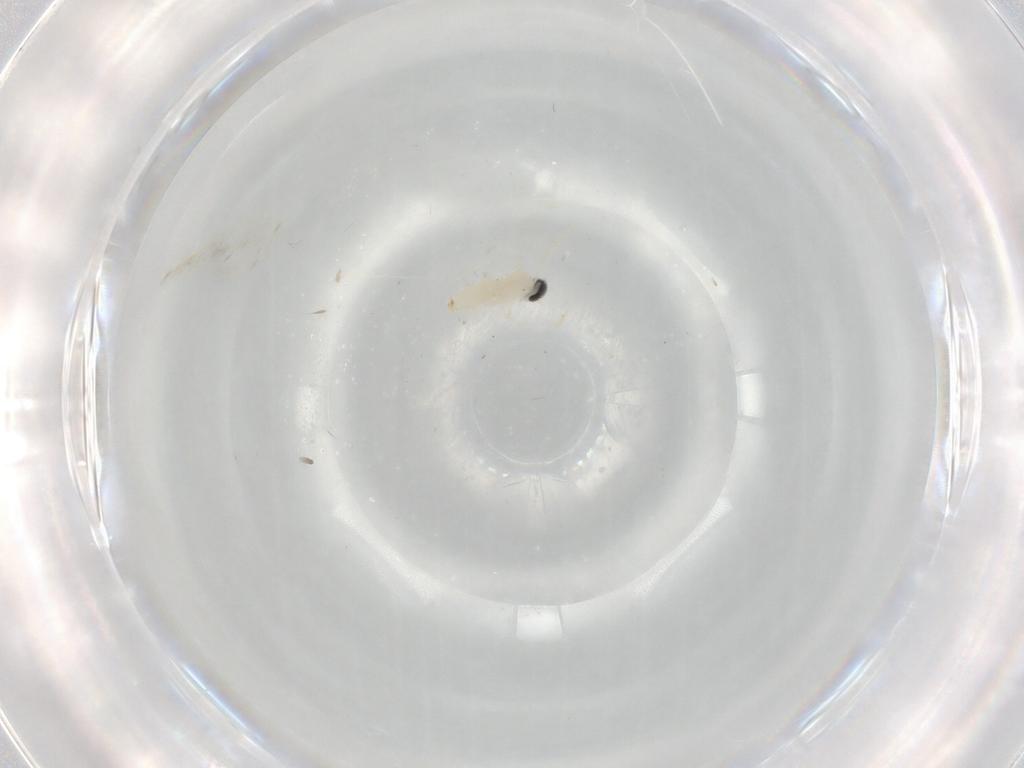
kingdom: Animalia
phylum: Arthropoda
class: Insecta
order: Diptera
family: Cecidomyiidae
